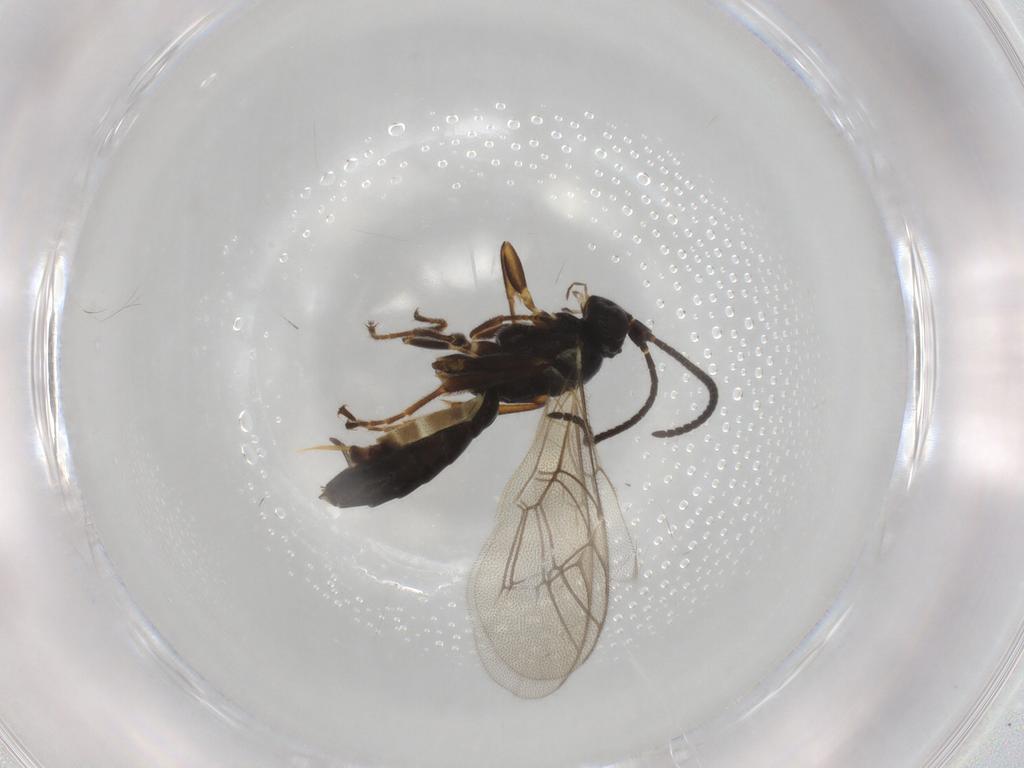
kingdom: Animalia
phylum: Arthropoda
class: Insecta
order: Hymenoptera
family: Ichneumonidae
